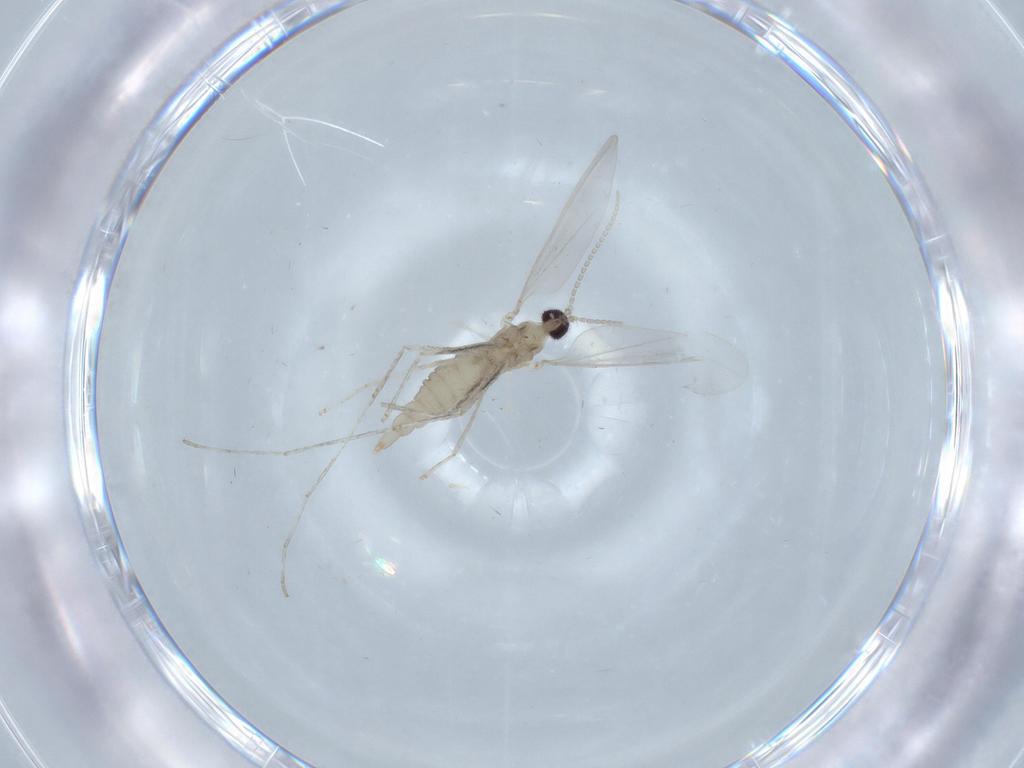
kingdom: Animalia
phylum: Arthropoda
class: Insecta
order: Diptera
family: Cecidomyiidae
